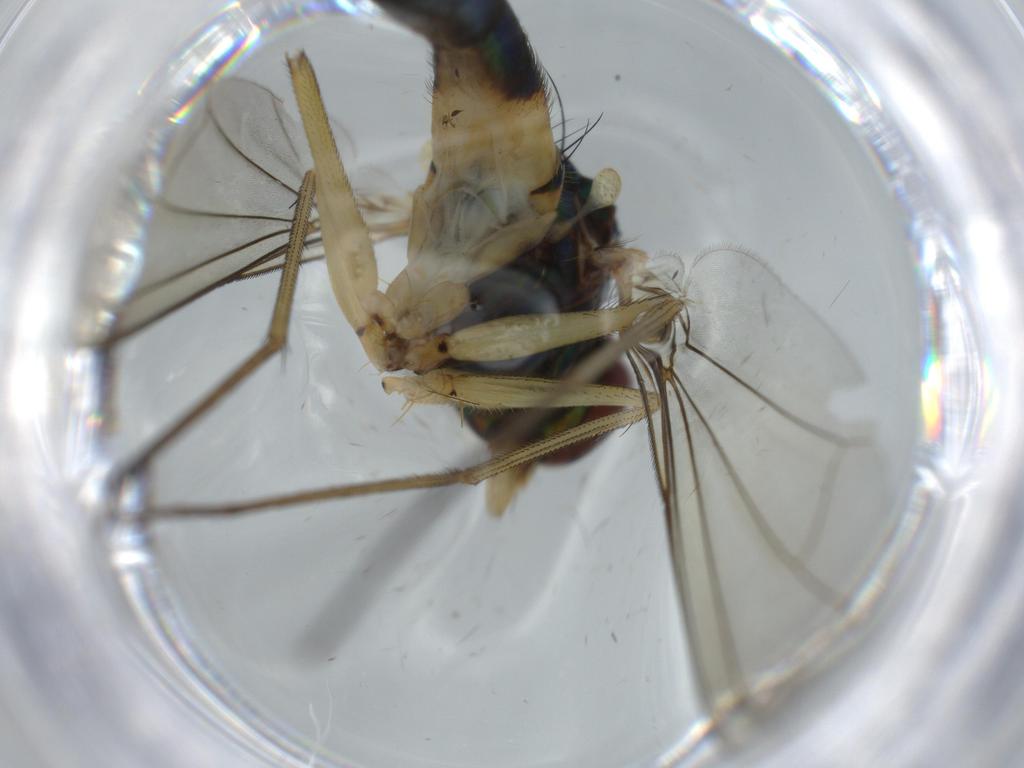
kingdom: Animalia
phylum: Arthropoda
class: Insecta
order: Diptera
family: Dolichopodidae
